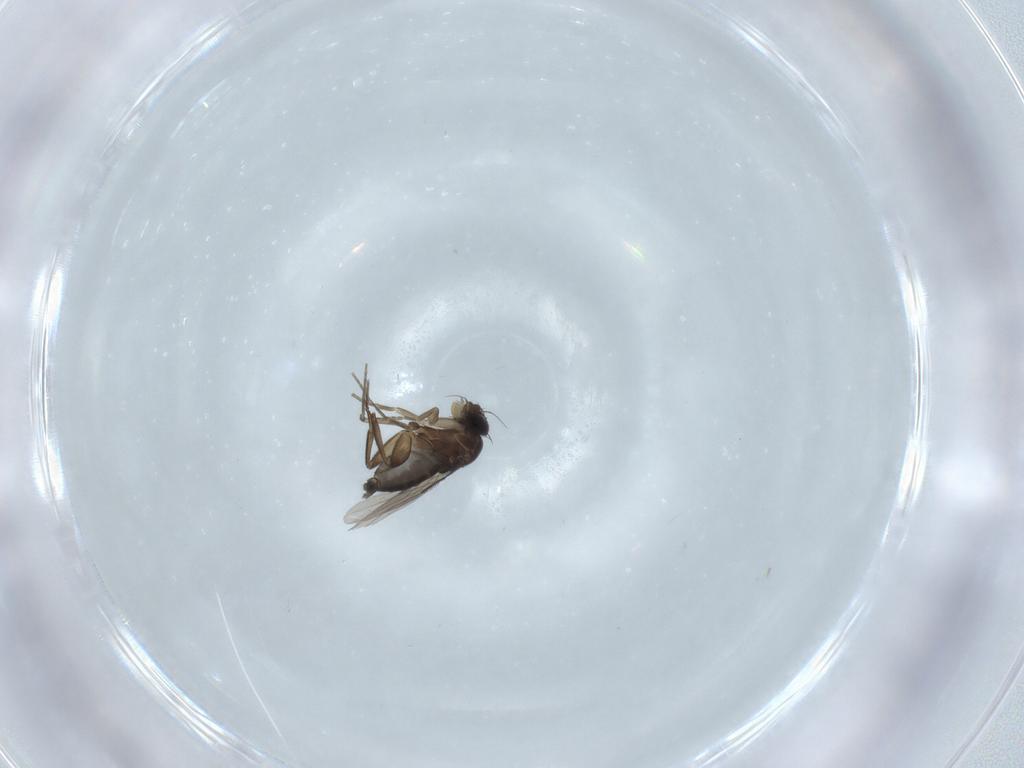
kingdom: Animalia
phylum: Arthropoda
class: Insecta
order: Diptera
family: Phoridae
